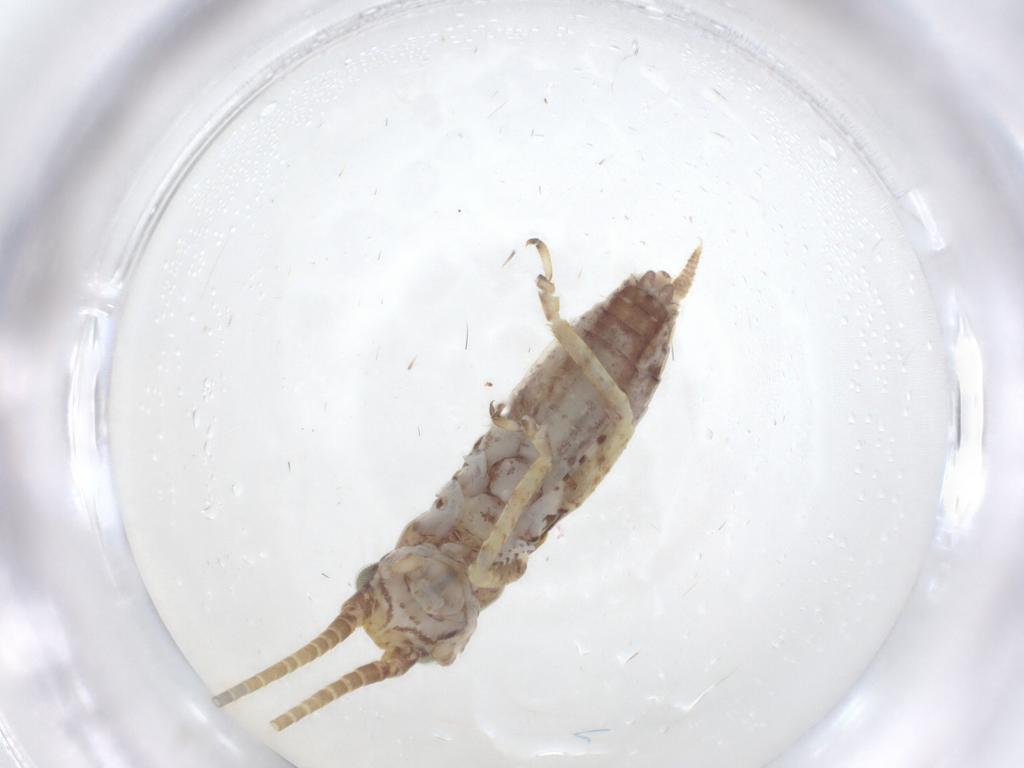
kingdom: Animalia
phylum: Arthropoda
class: Insecta
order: Orthoptera
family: Gryllidae
